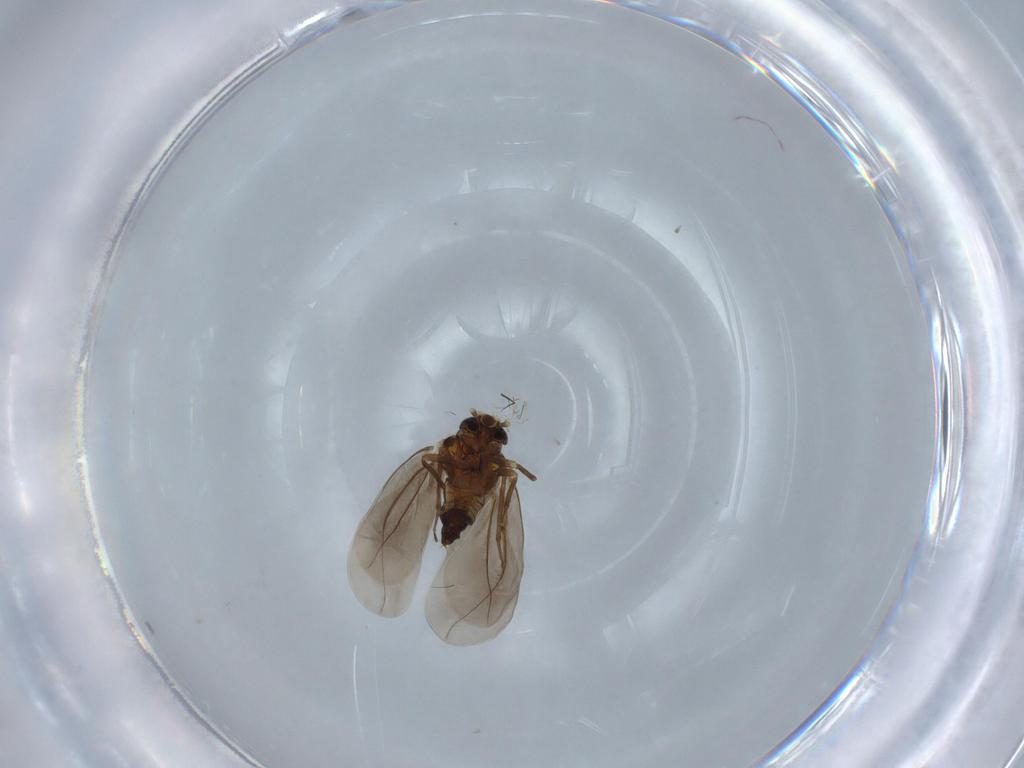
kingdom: Animalia
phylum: Arthropoda
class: Insecta
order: Hemiptera
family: Aleyrodidae
